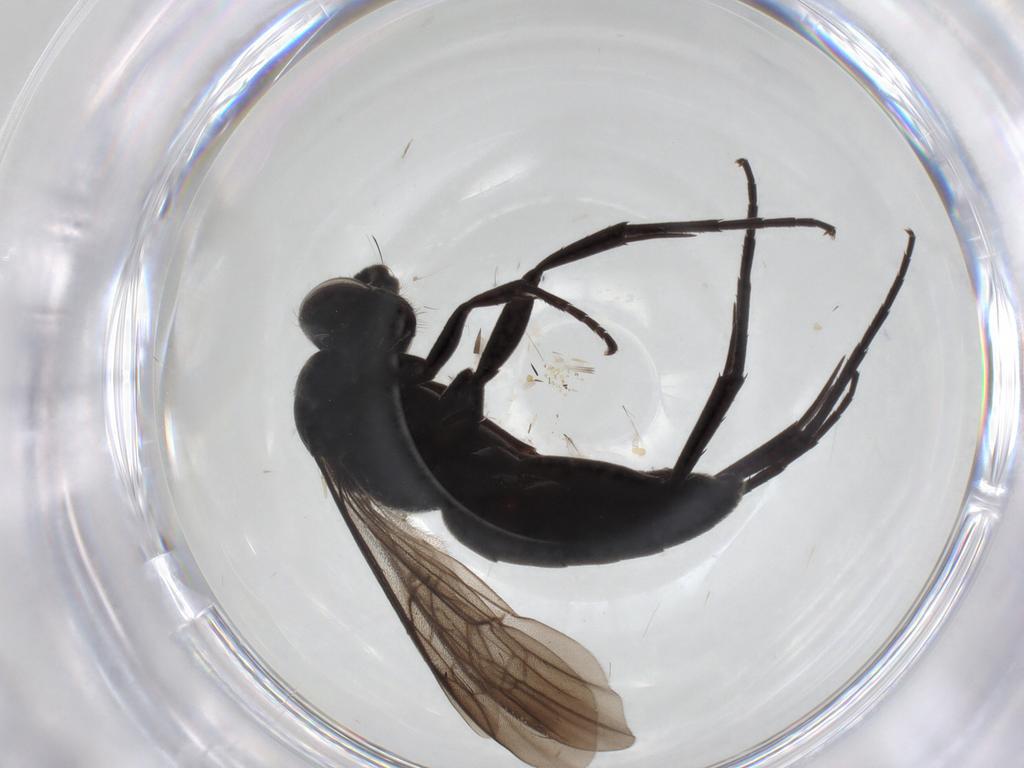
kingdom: Animalia
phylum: Arthropoda
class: Insecta
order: Hymenoptera
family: Pompilidae
